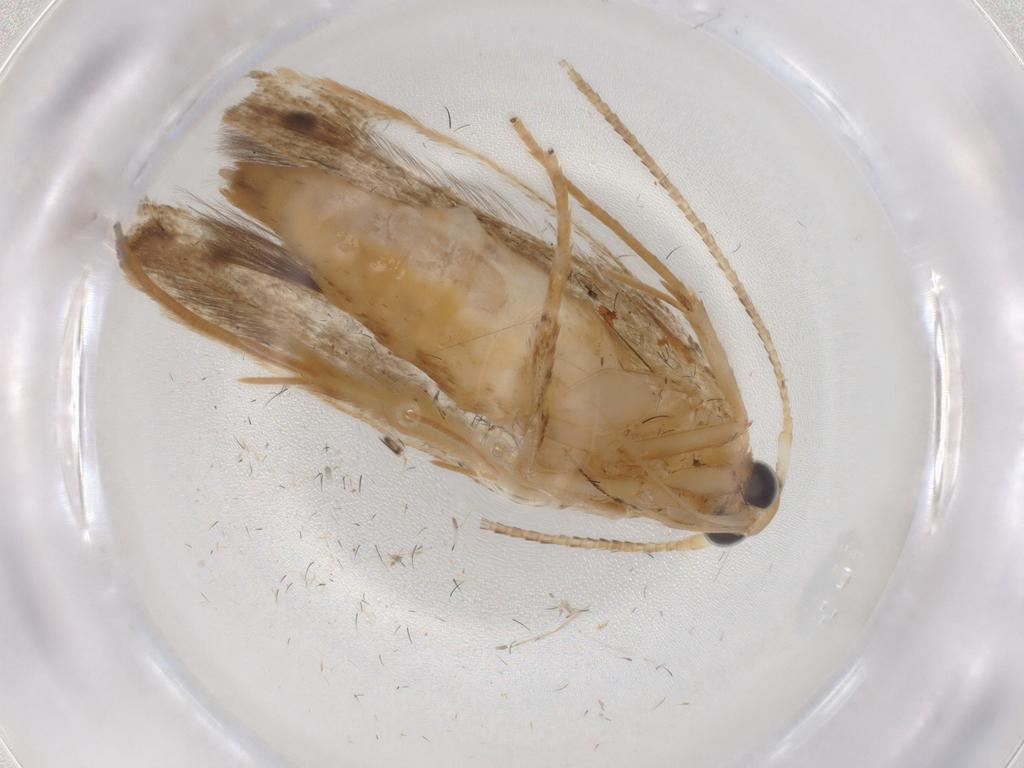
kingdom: Animalia
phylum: Arthropoda
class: Insecta
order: Lepidoptera
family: Coleophoridae
